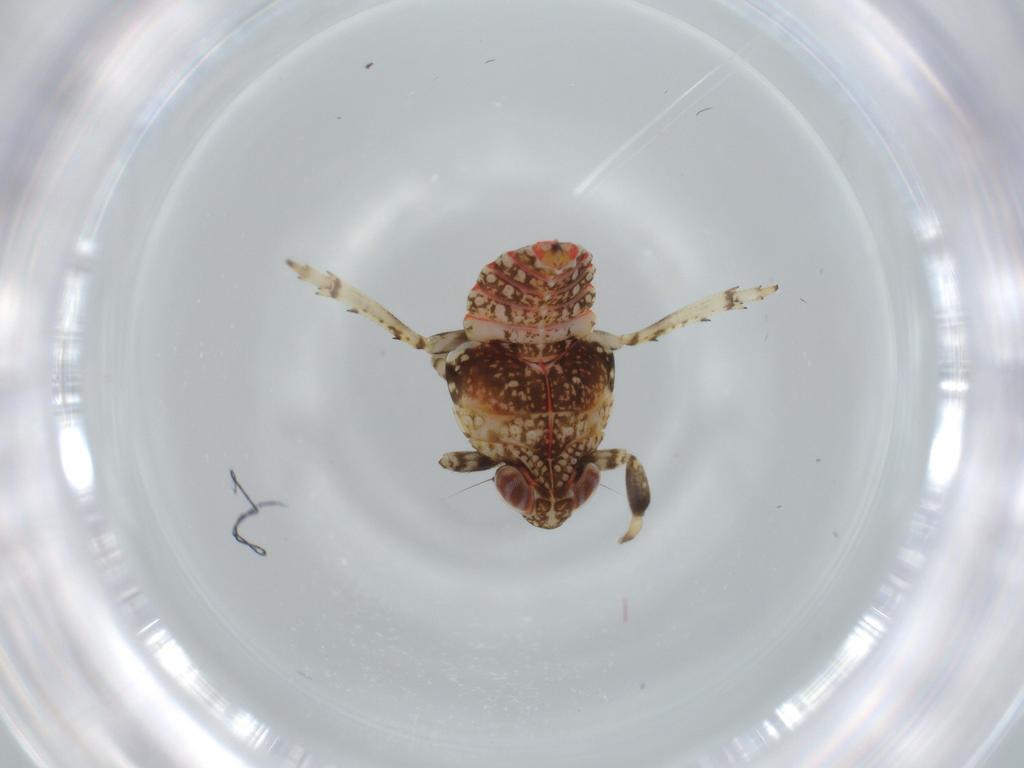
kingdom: Animalia
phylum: Arthropoda
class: Insecta
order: Hemiptera
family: Issidae
